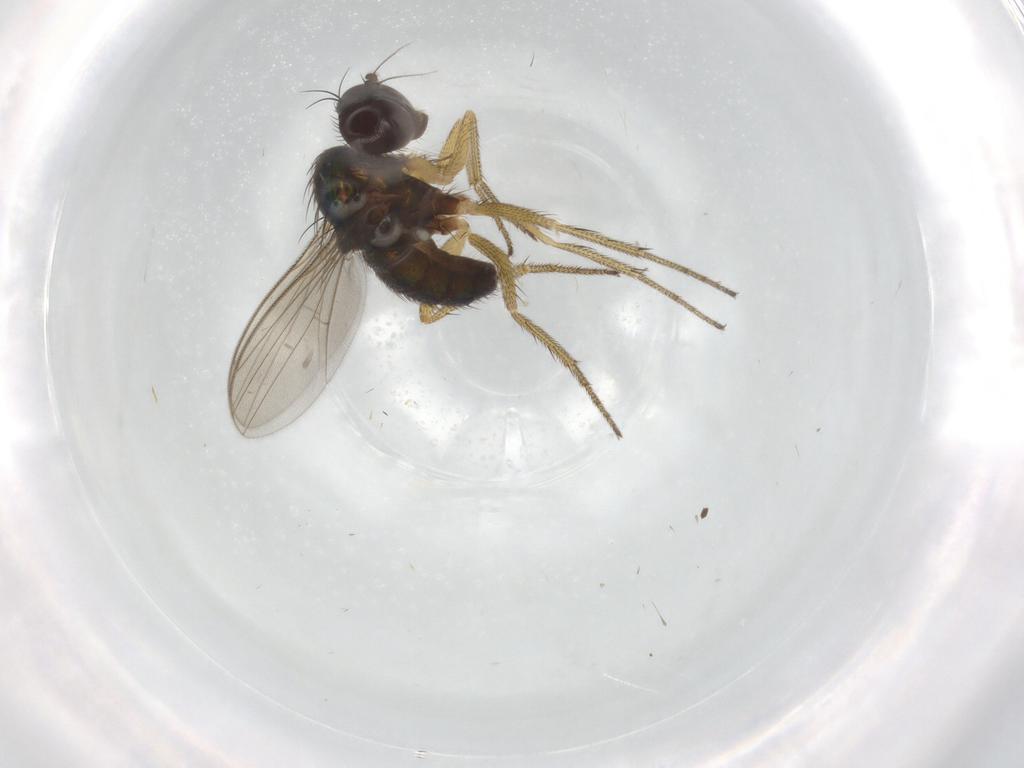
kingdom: Animalia
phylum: Arthropoda
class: Insecta
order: Diptera
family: Dolichopodidae
